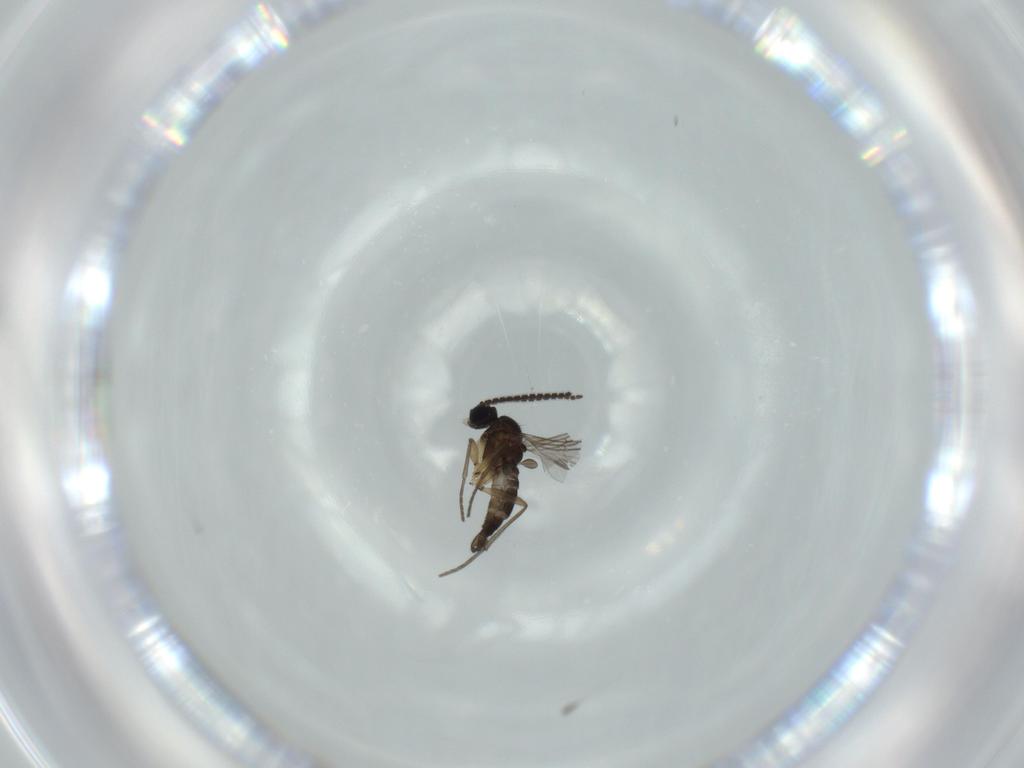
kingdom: Animalia
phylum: Arthropoda
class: Insecta
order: Diptera
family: Sciaridae
